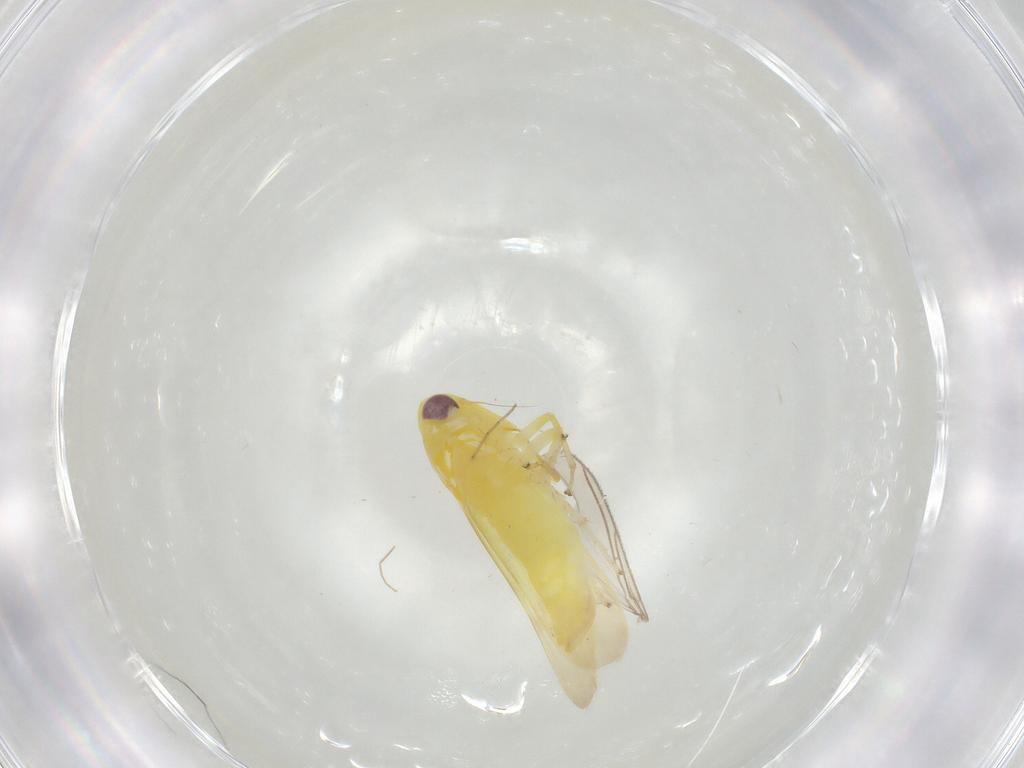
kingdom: Animalia
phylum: Arthropoda
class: Insecta
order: Hemiptera
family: Cicadellidae
